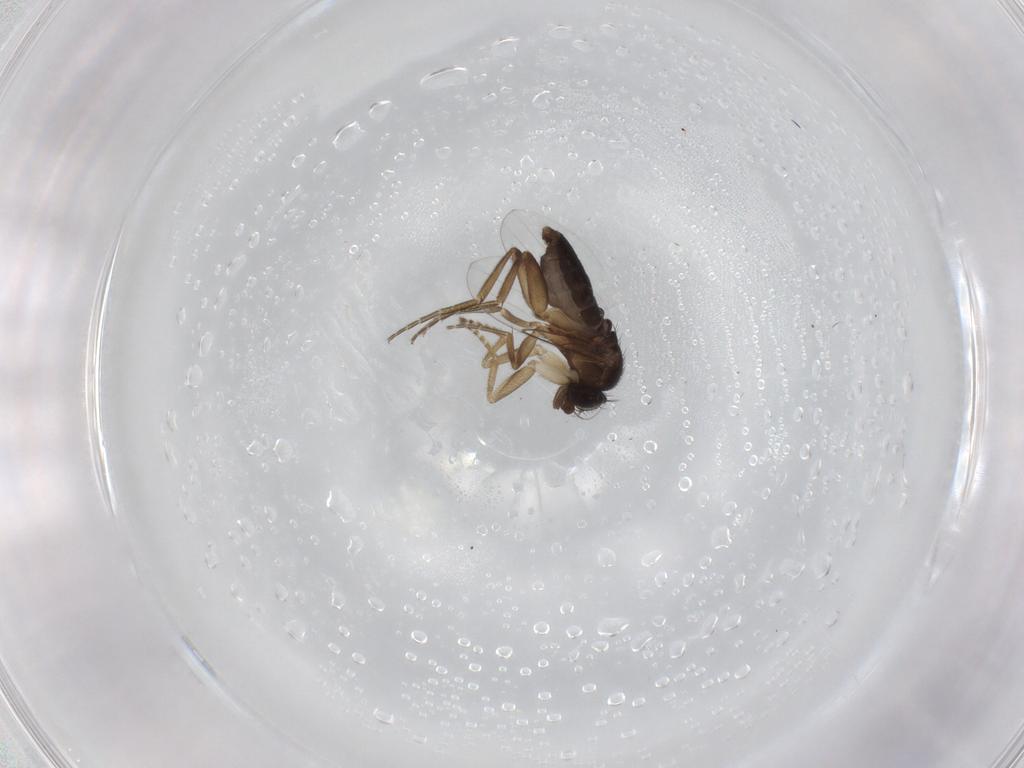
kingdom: Animalia
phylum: Arthropoda
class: Insecta
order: Diptera
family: Phoridae
